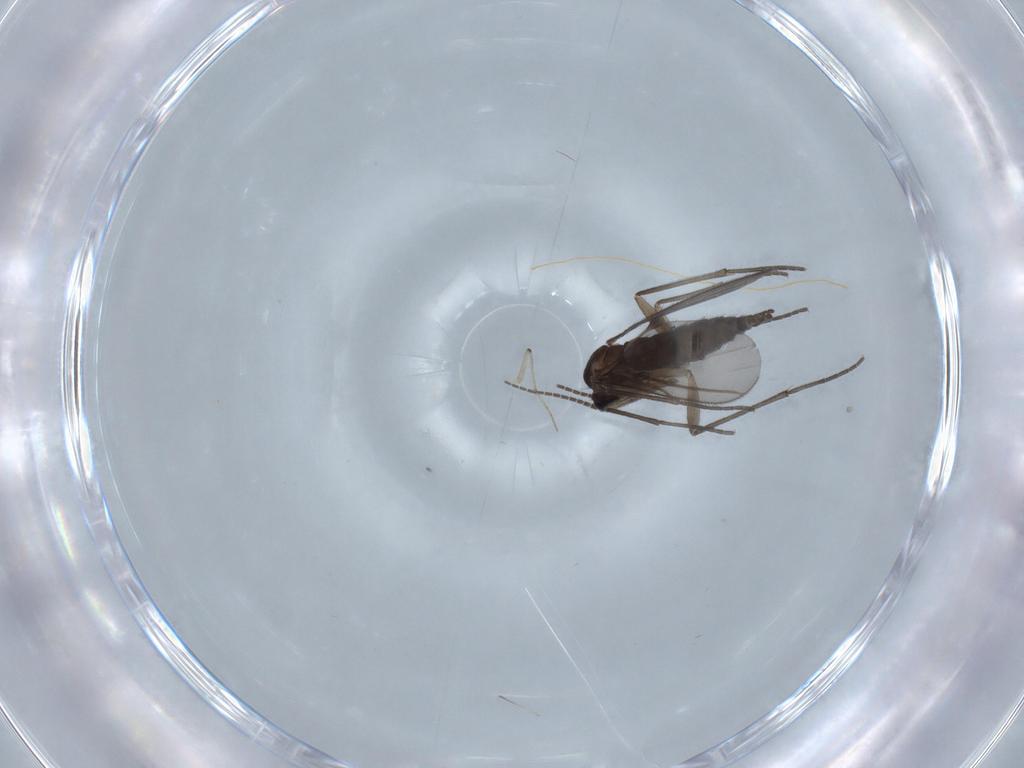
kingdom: Animalia
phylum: Arthropoda
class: Insecta
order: Diptera
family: Sciaridae
